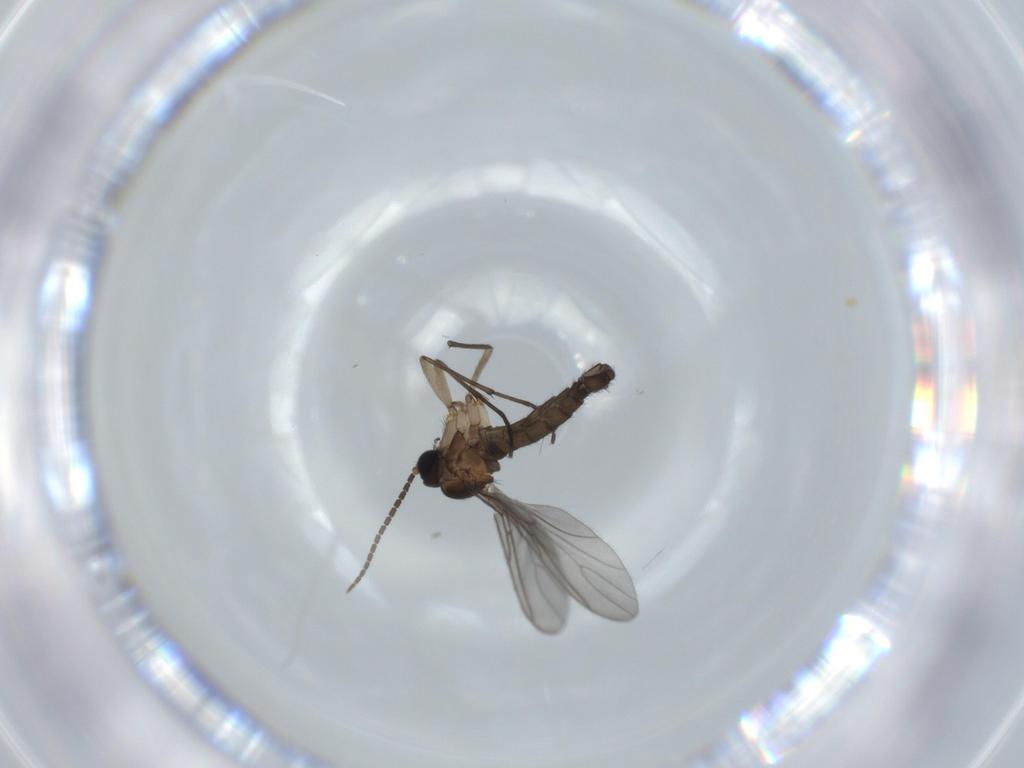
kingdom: Animalia
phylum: Arthropoda
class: Insecta
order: Diptera
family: Sciaridae
